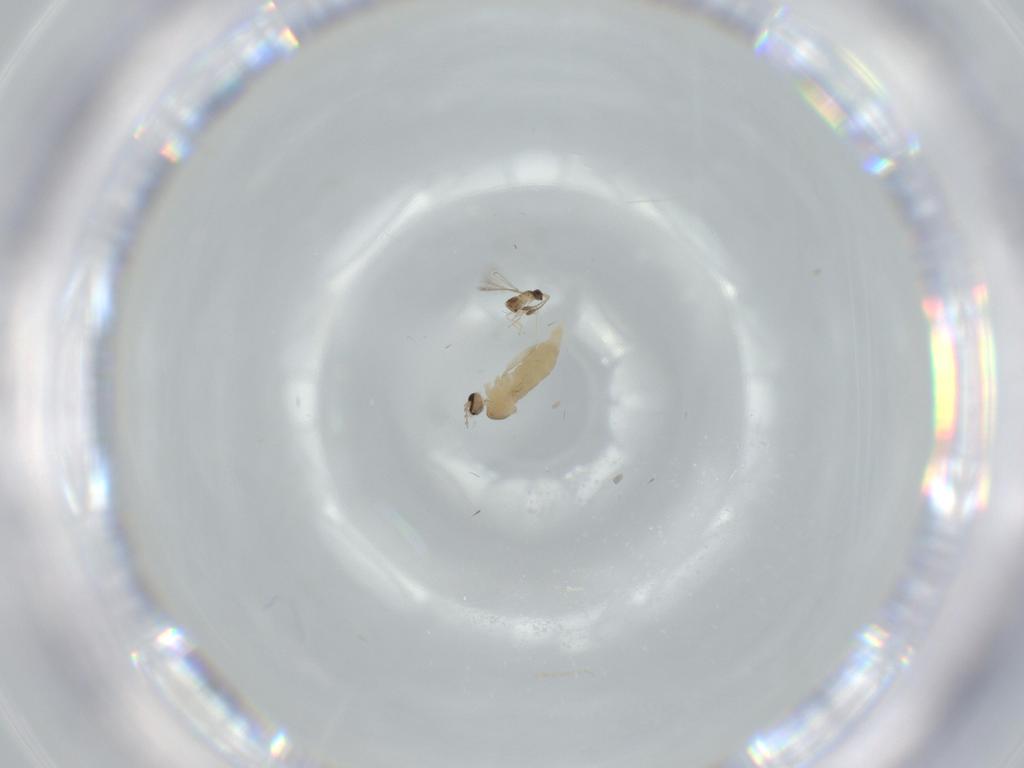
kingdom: Animalia
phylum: Arthropoda
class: Insecta
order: Diptera
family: Cecidomyiidae
